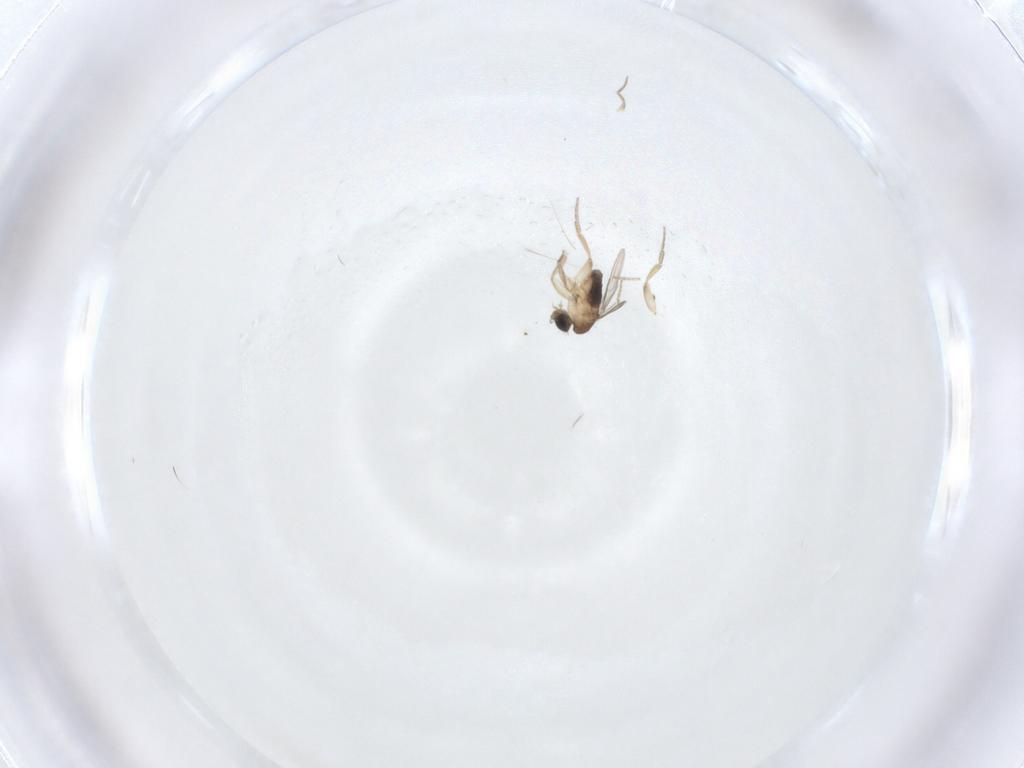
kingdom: Animalia
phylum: Arthropoda
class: Insecta
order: Diptera
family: Phoridae
